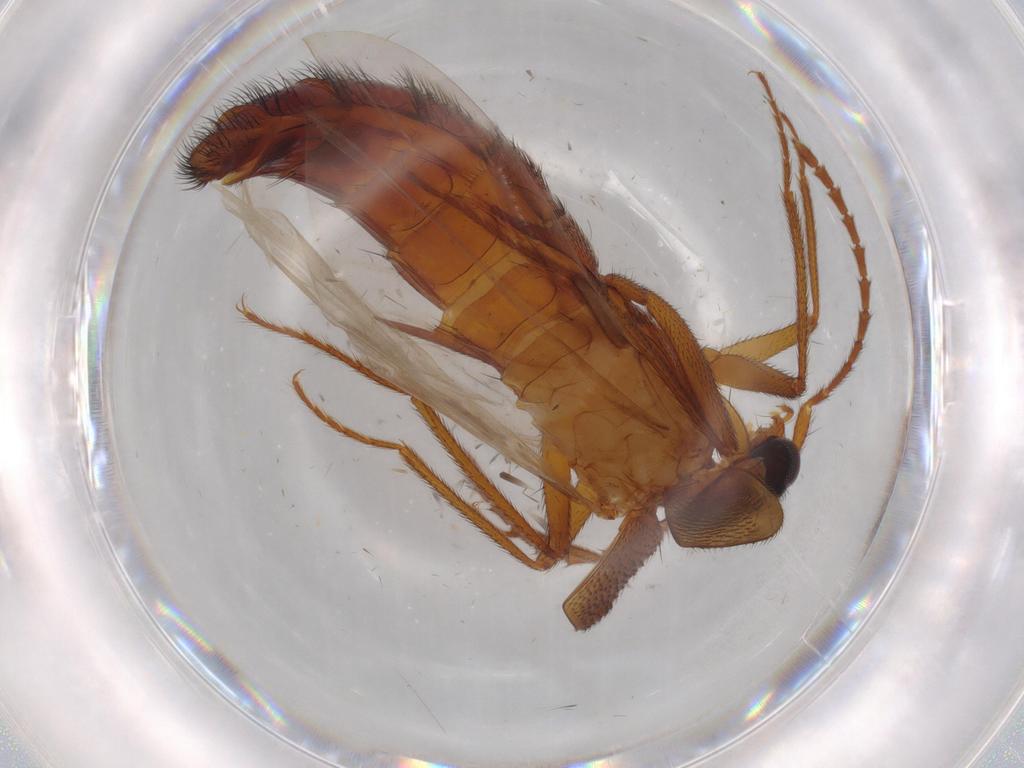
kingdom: Animalia
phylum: Arthropoda
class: Insecta
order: Coleoptera
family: Staphylinidae
